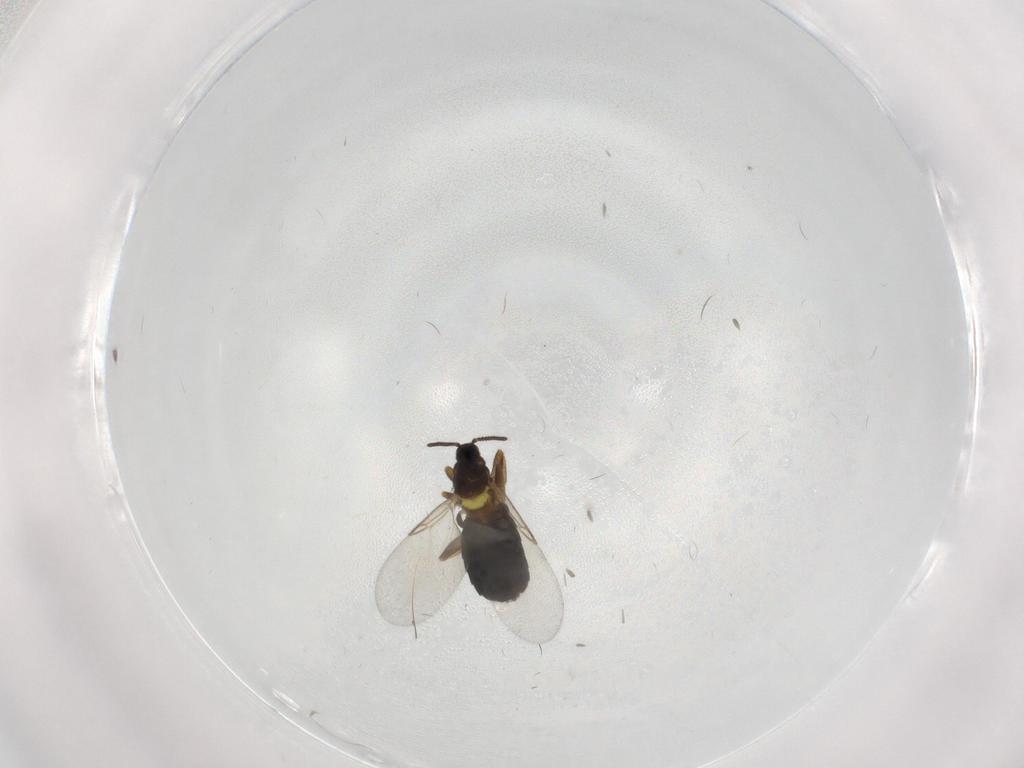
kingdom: Animalia
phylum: Arthropoda
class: Insecta
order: Diptera
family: Scatopsidae
